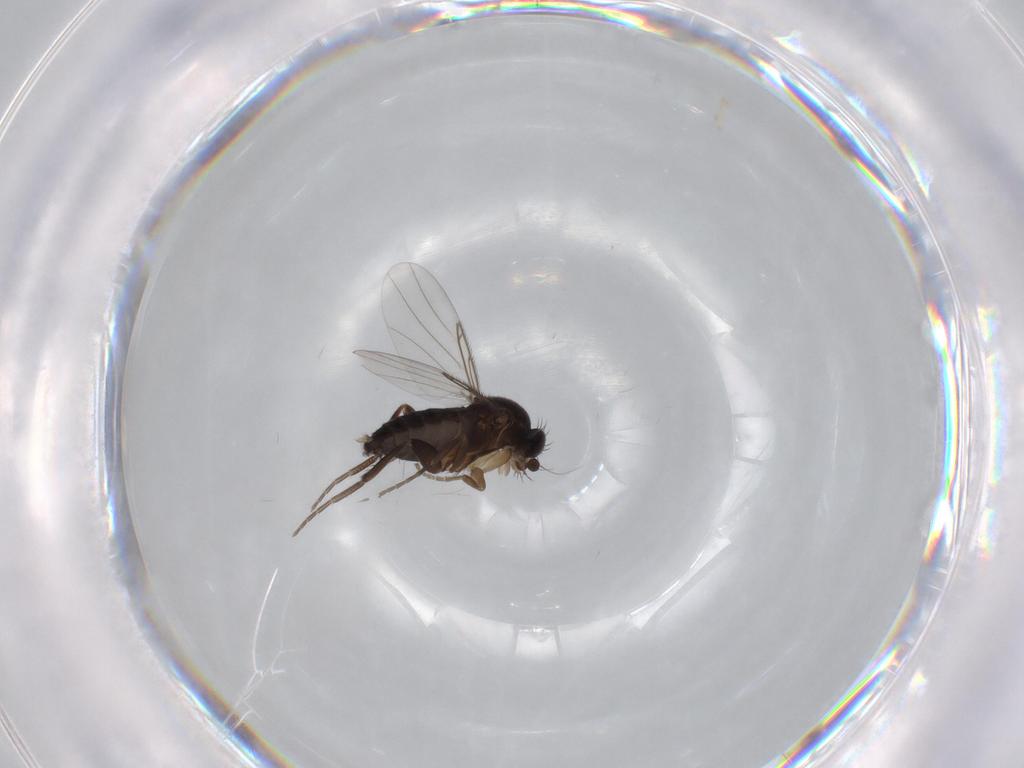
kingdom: Animalia
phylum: Arthropoda
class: Insecta
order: Diptera
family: Phoridae
